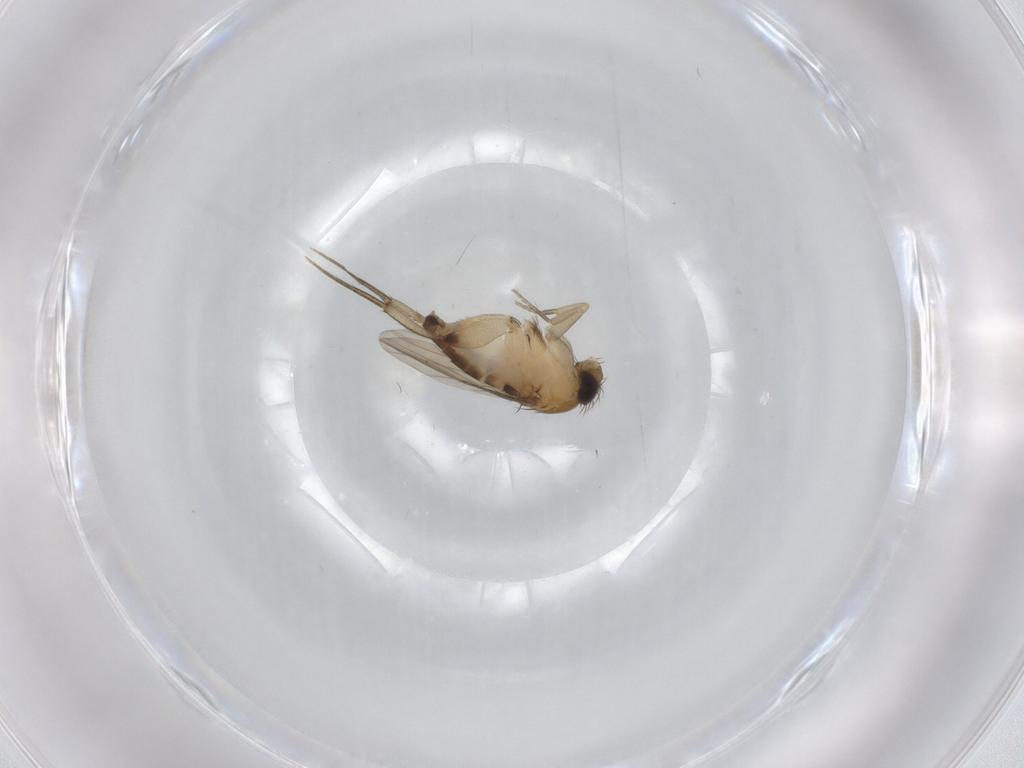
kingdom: Animalia
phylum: Arthropoda
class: Insecta
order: Diptera
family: Phoridae
